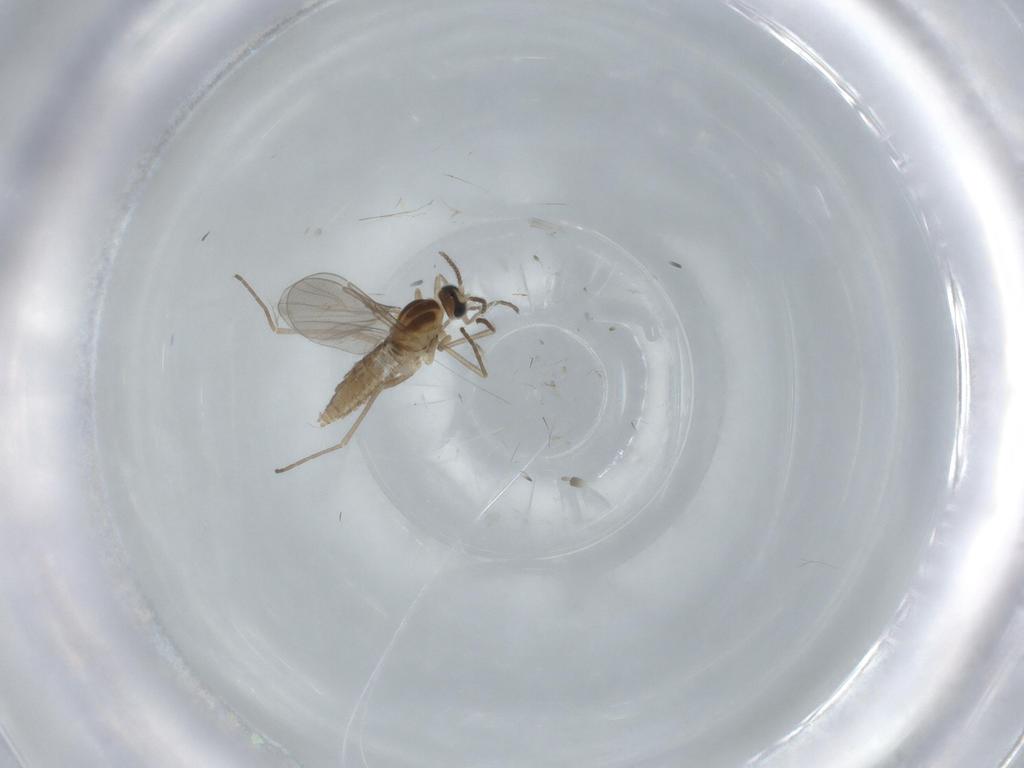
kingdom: Animalia
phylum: Arthropoda
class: Insecta
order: Diptera
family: Cecidomyiidae
